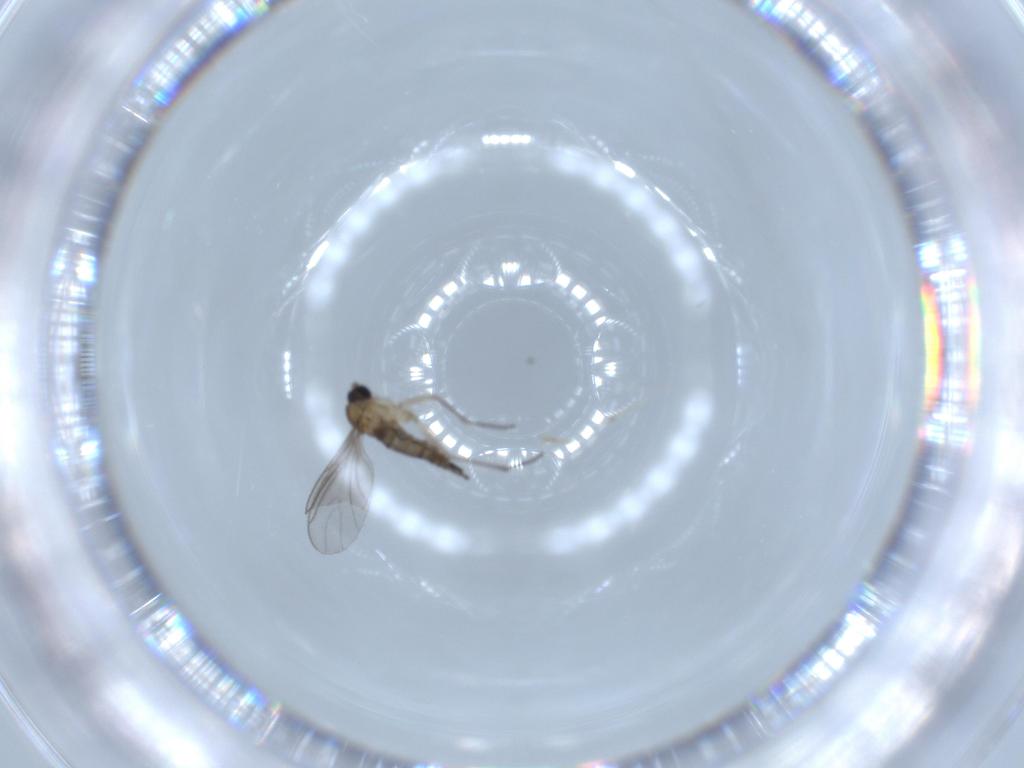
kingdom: Animalia
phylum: Arthropoda
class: Insecta
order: Diptera
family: Sciaridae
